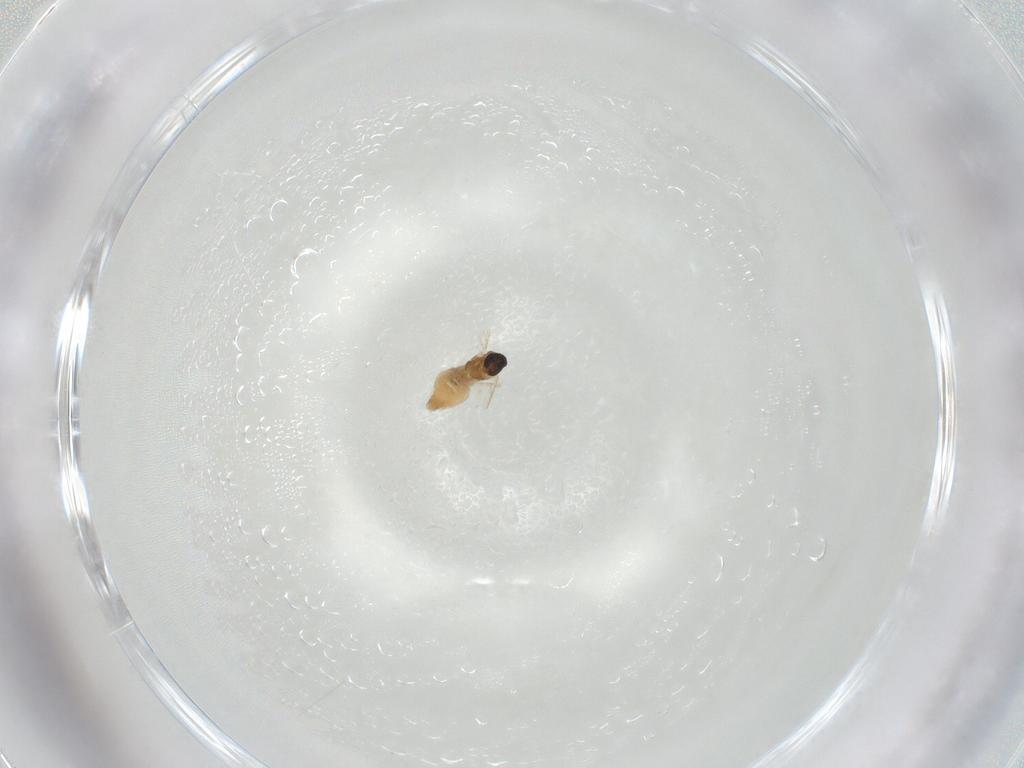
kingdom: Animalia
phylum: Arthropoda
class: Insecta
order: Diptera
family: Cecidomyiidae
